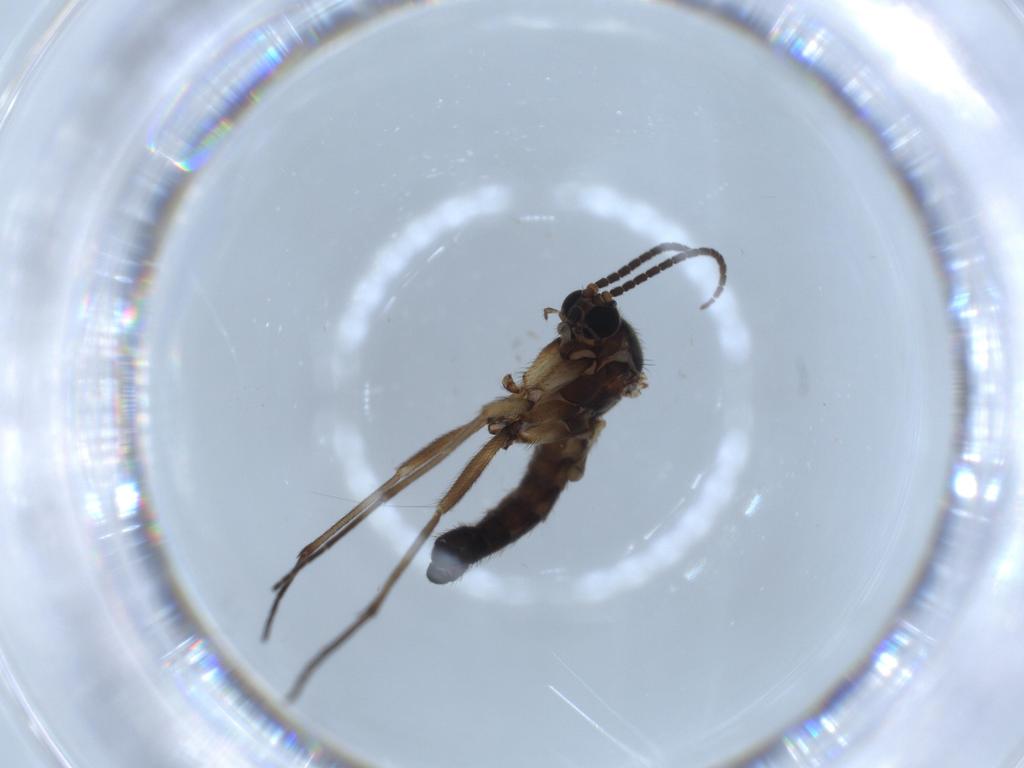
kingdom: Animalia
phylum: Arthropoda
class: Insecta
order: Diptera
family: Sciaridae
